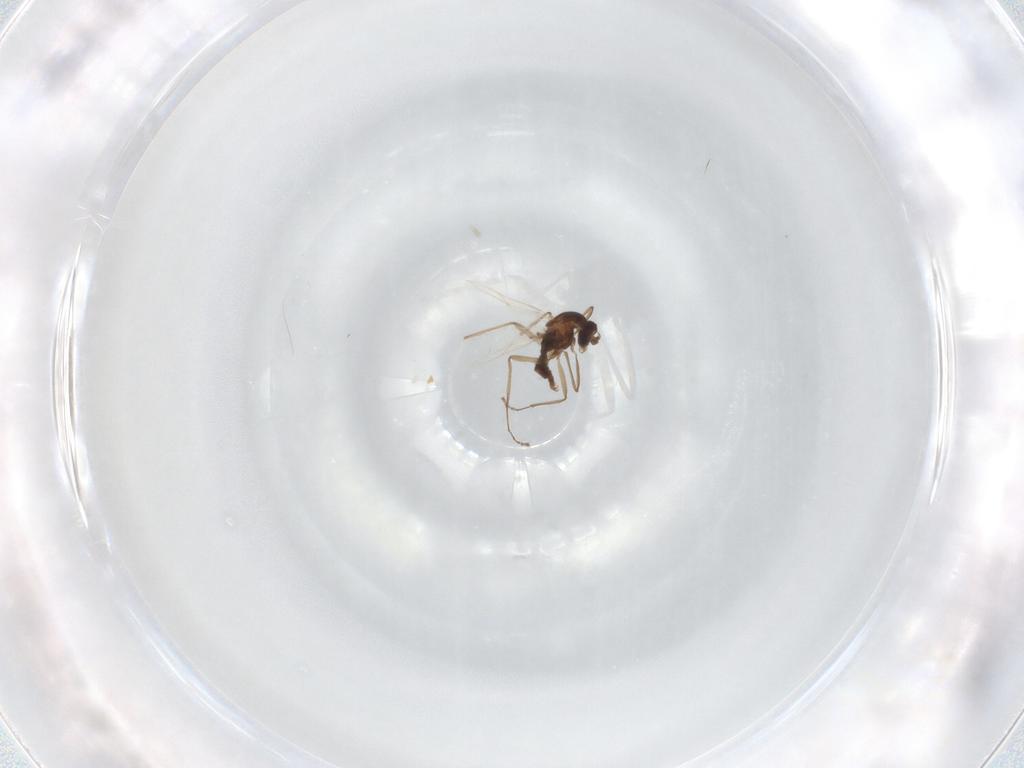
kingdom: Animalia
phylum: Arthropoda
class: Insecta
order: Diptera
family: Cecidomyiidae
